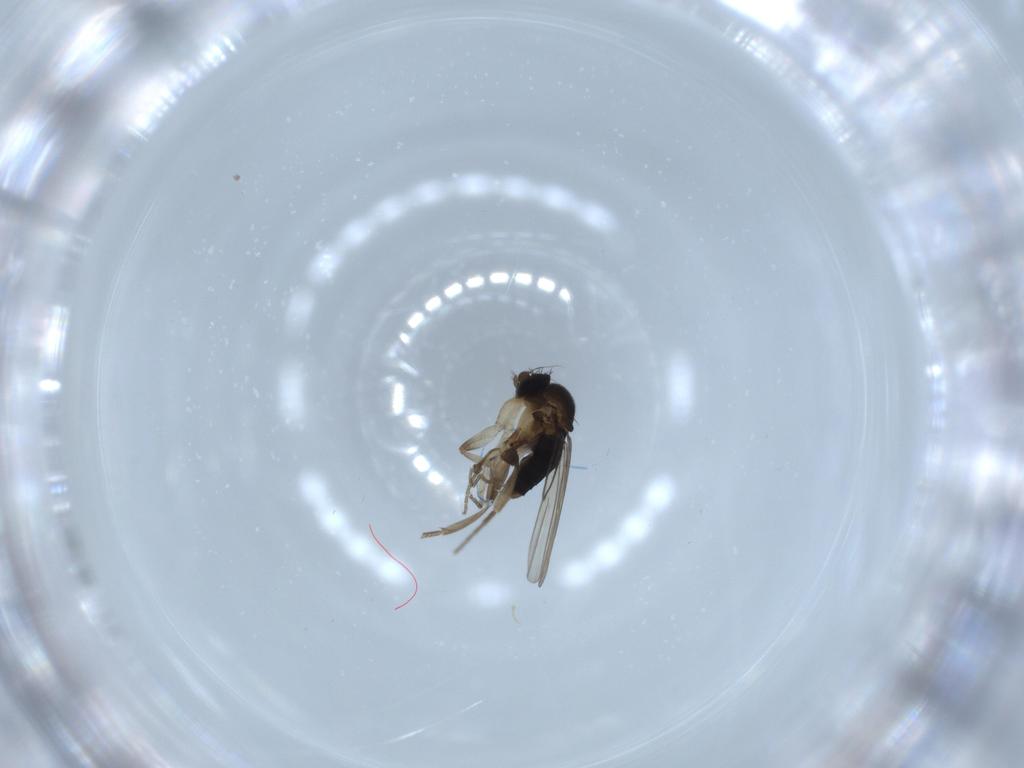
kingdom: Animalia
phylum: Arthropoda
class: Insecta
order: Diptera
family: Phoridae
